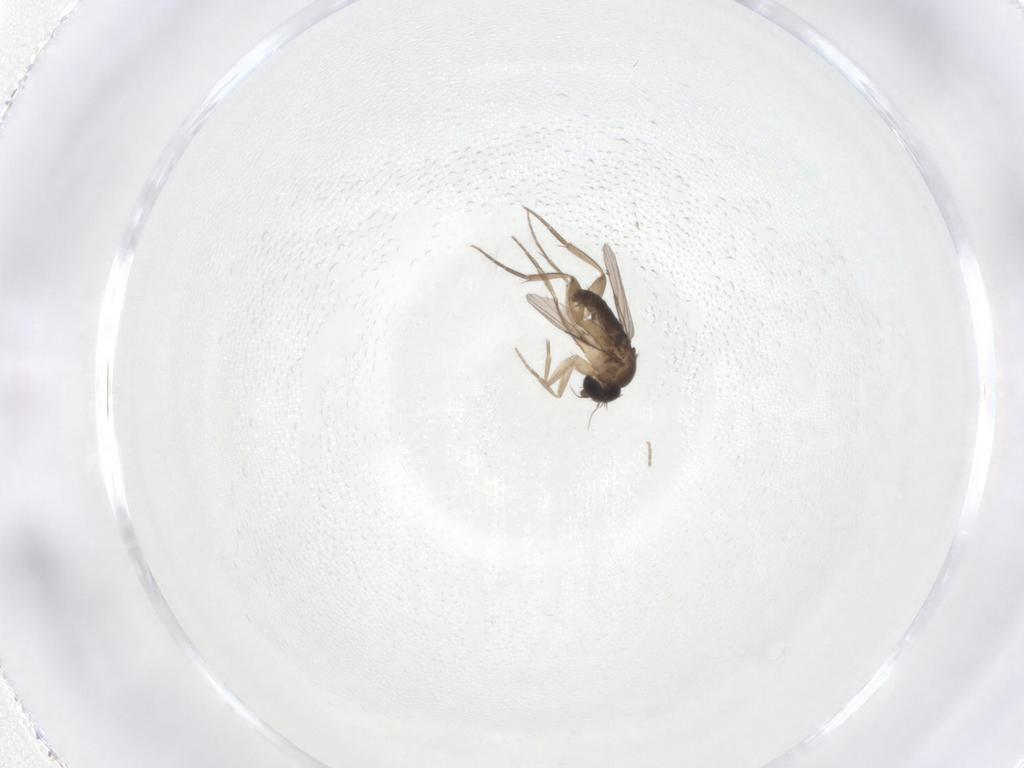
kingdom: Animalia
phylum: Arthropoda
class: Insecta
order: Diptera
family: Phoridae
